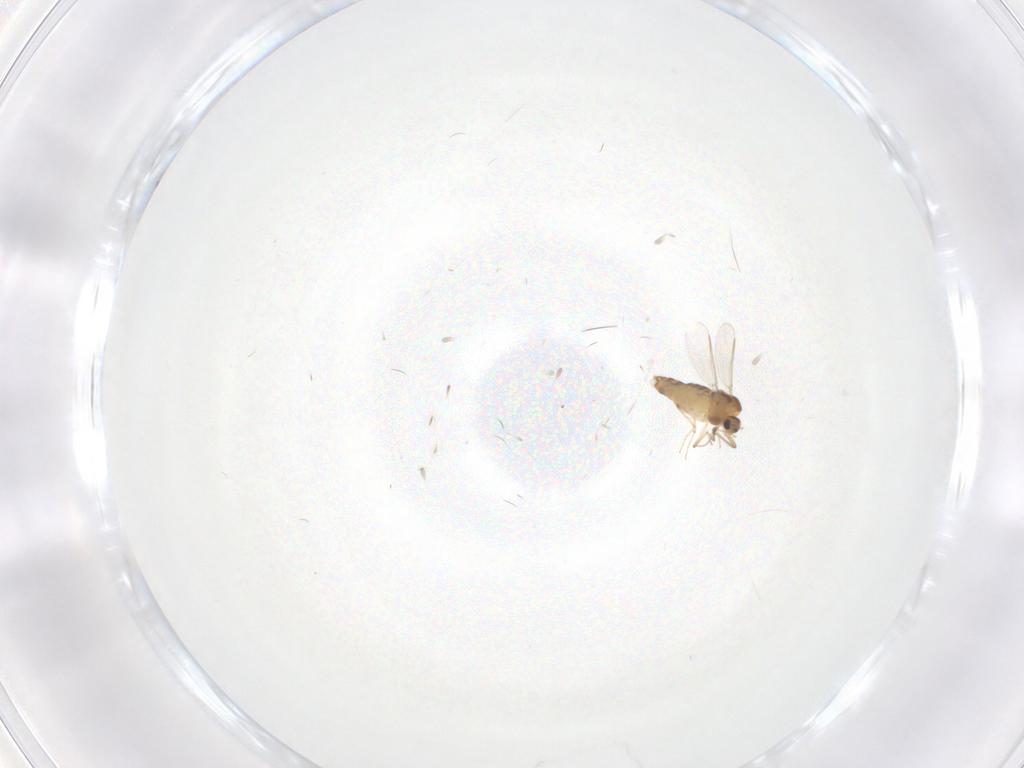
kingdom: Animalia
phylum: Arthropoda
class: Insecta
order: Diptera
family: Chironomidae
